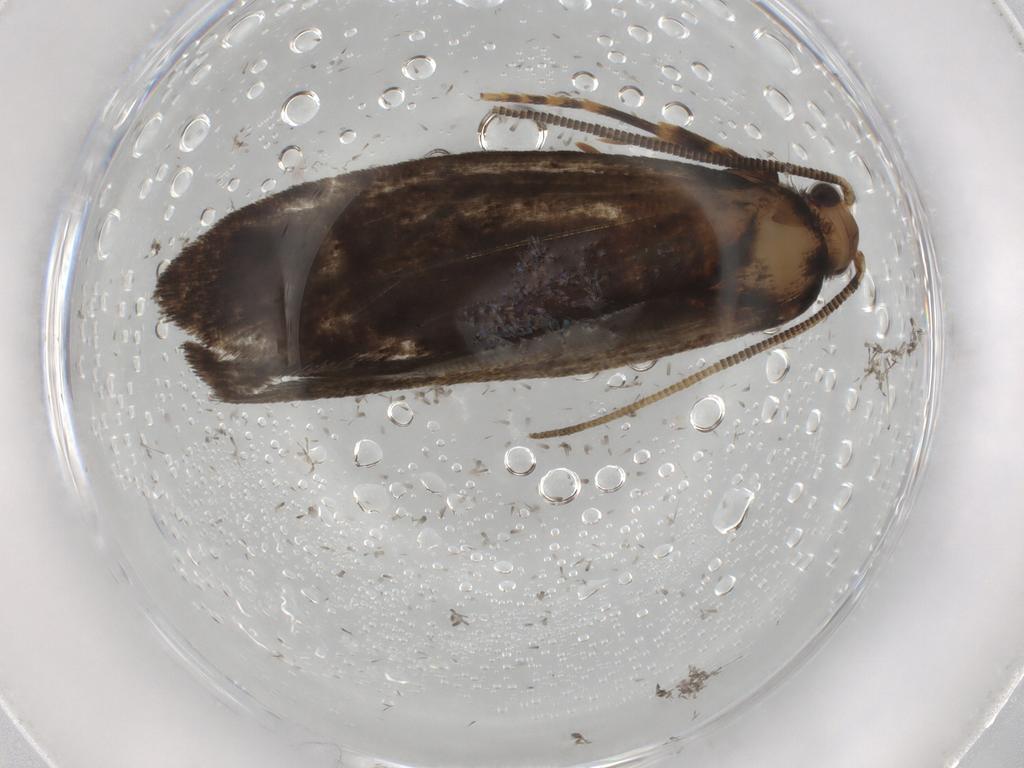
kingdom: Animalia
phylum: Arthropoda
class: Insecta
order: Lepidoptera
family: Tineidae
